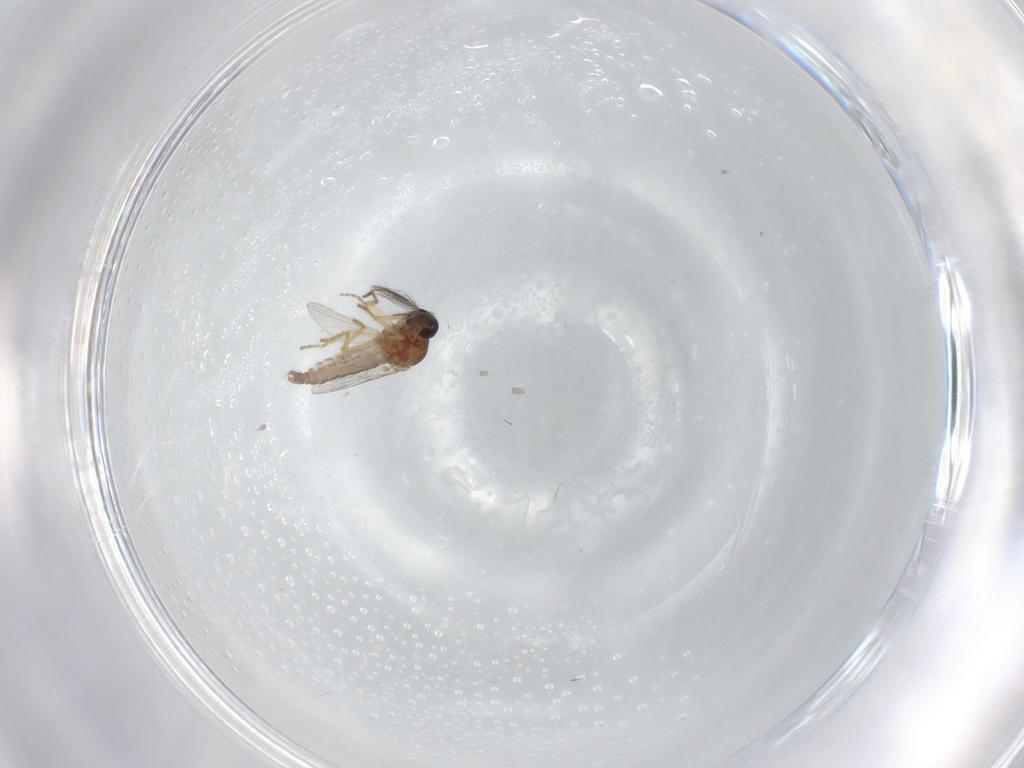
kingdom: Animalia
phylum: Arthropoda
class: Insecta
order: Diptera
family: Ceratopogonidae
